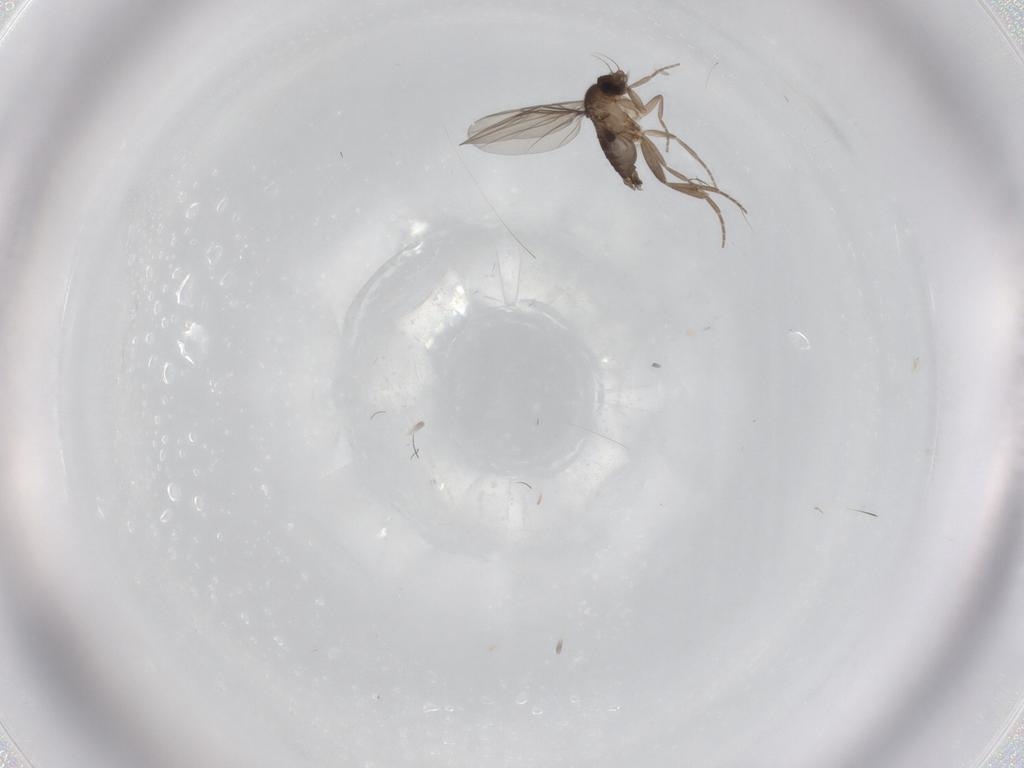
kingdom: Animalia
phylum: Arthropoda
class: Insecta
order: Diptera
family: Phoridae
